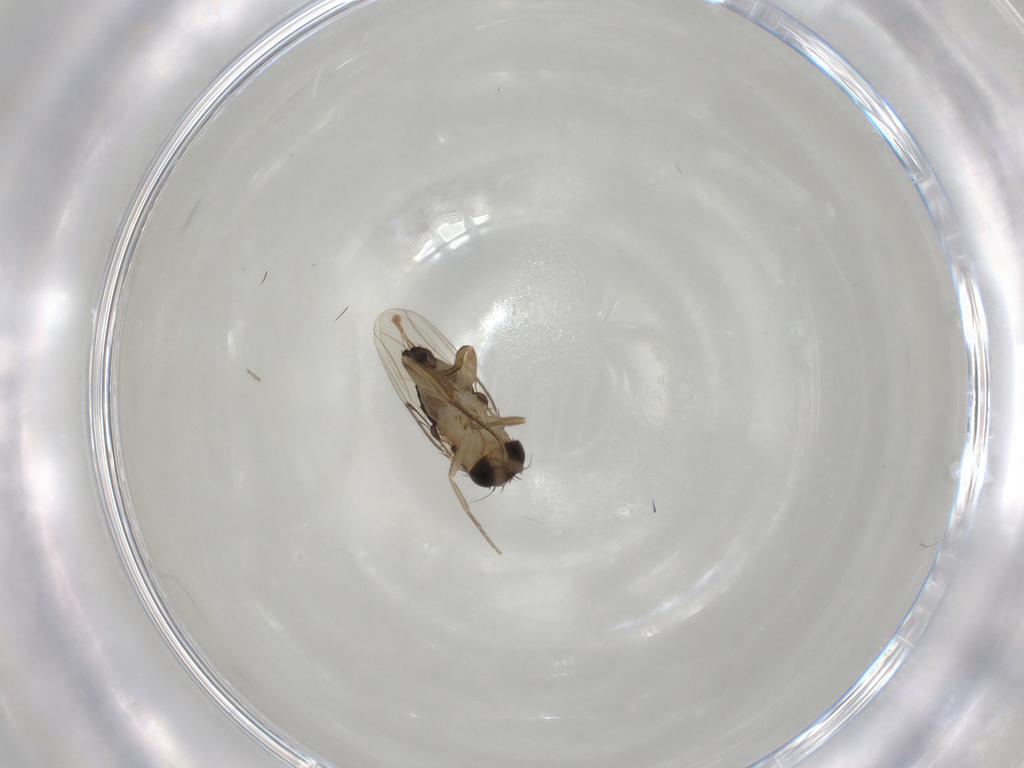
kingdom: Animalia
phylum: Arthropoda
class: Insecta
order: Diptera
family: Phoridae
